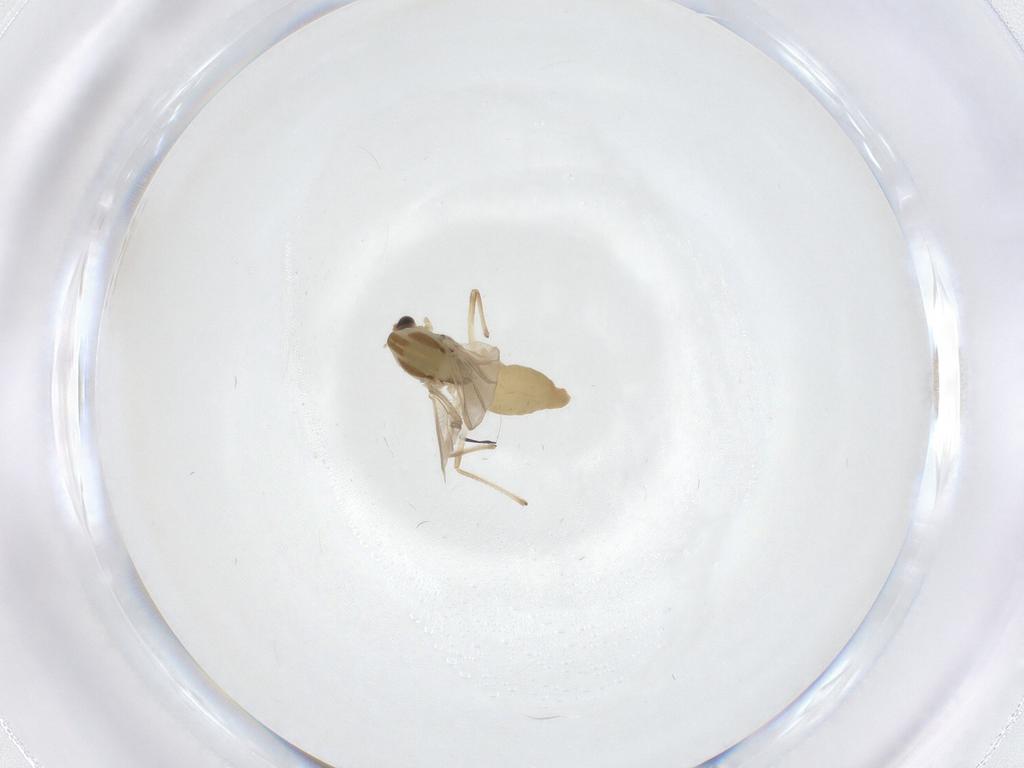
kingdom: Animalia
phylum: Arthropoda
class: Insecta
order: Diptera
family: Chironomidae
